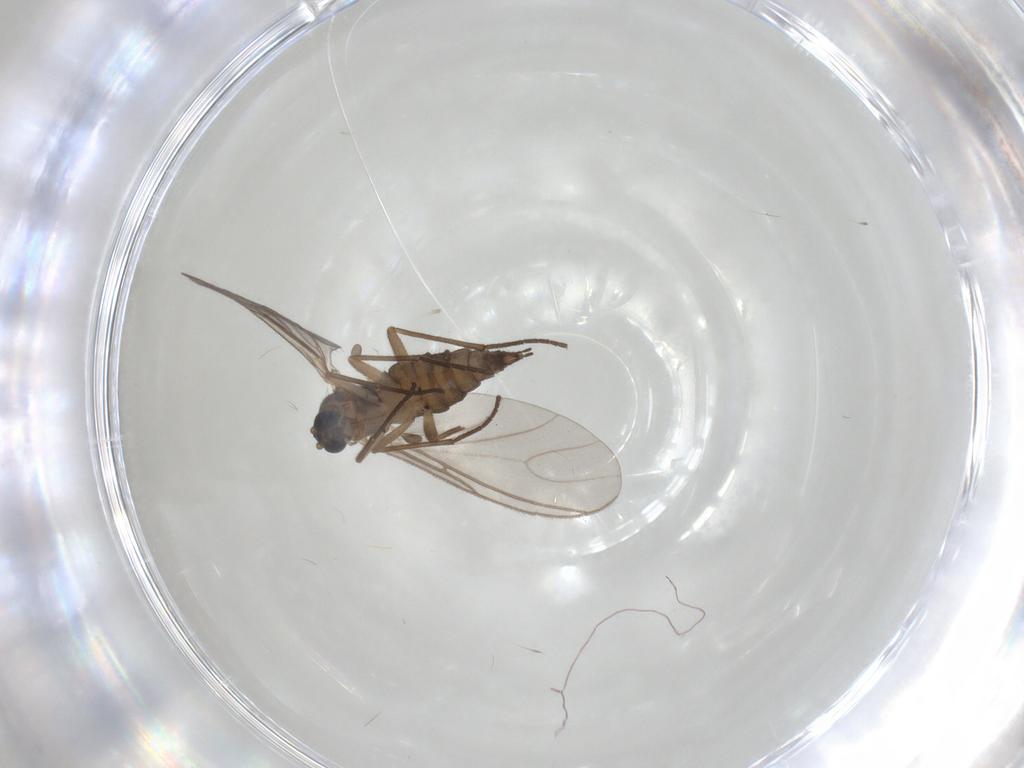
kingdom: Animalia
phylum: Arthropoda
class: Insecta
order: Diptera
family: Sciaridae
